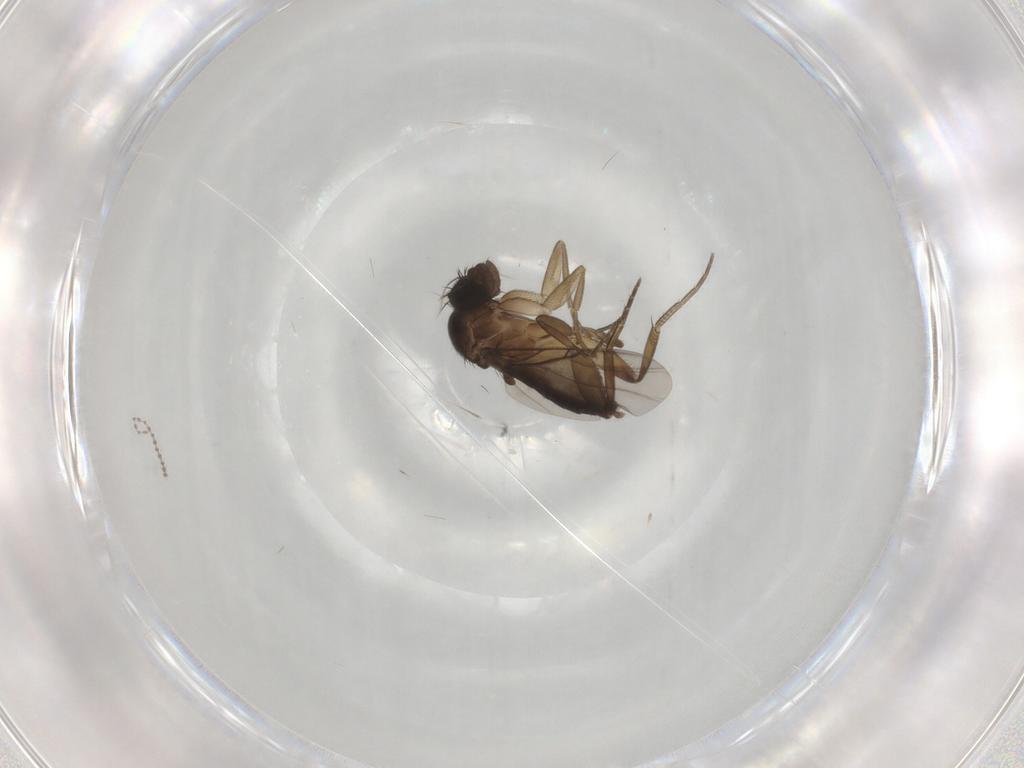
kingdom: Animalia
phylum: Arthropoda
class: Insecta
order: Diptera
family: Phoridae
